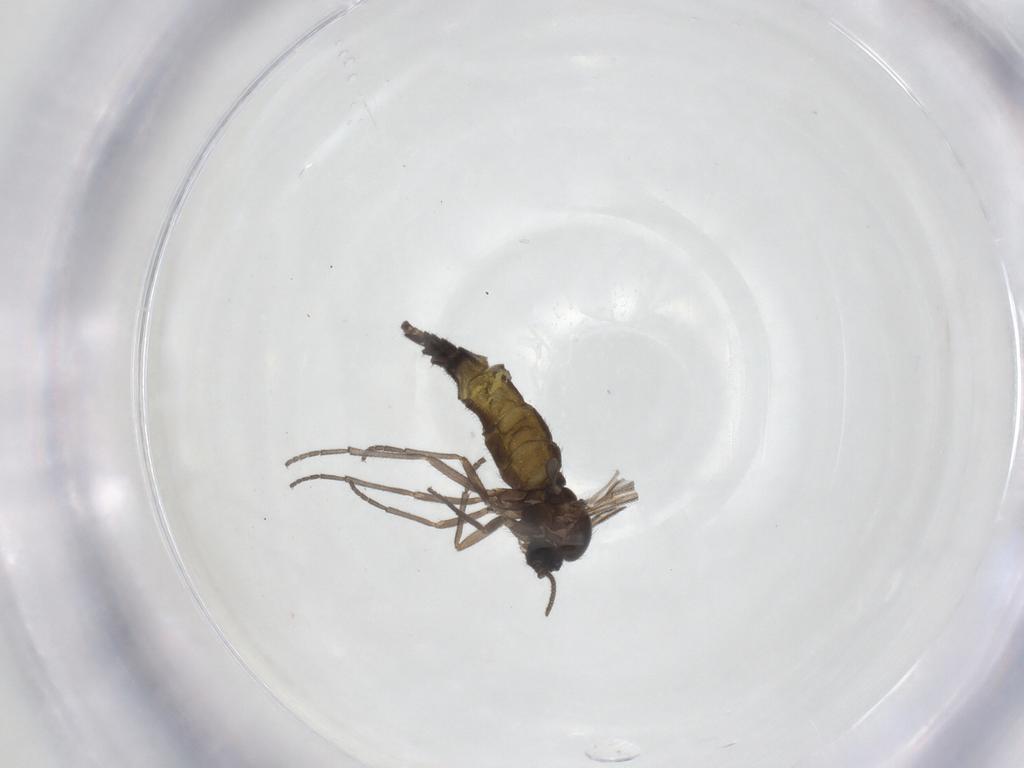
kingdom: Animalia
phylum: Arthropoda
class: Insecta
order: Diptera
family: Sciaridae
